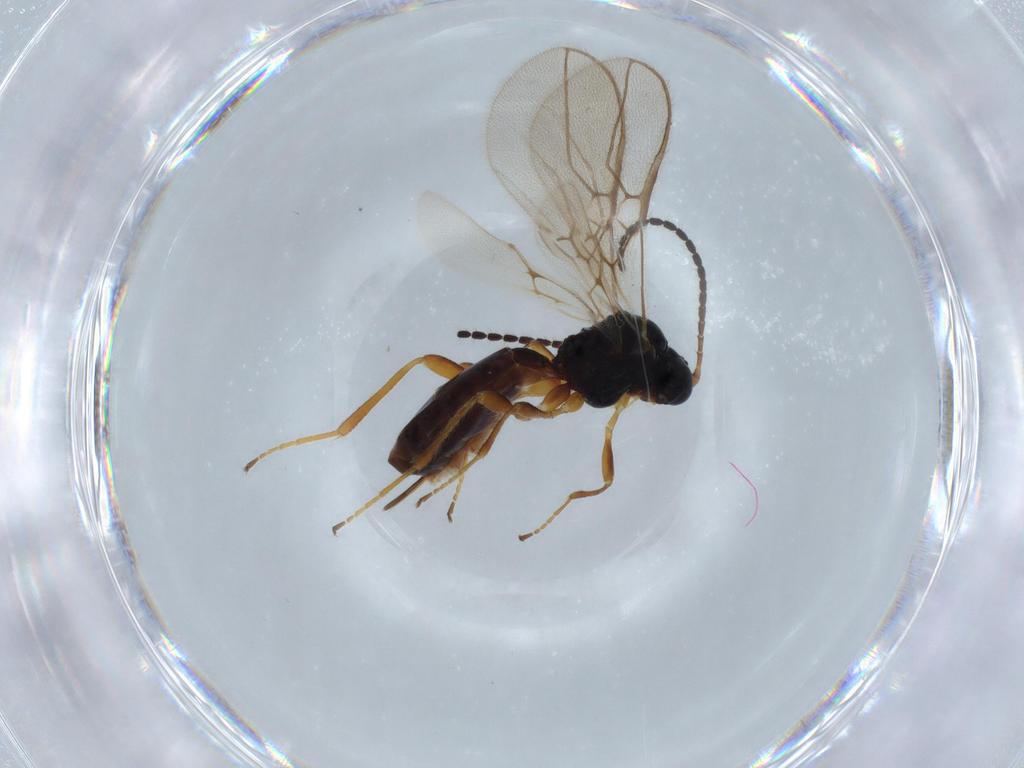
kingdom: Animalia
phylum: Arthropoda
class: Insecta
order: Hymenoptera
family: Braconidae
